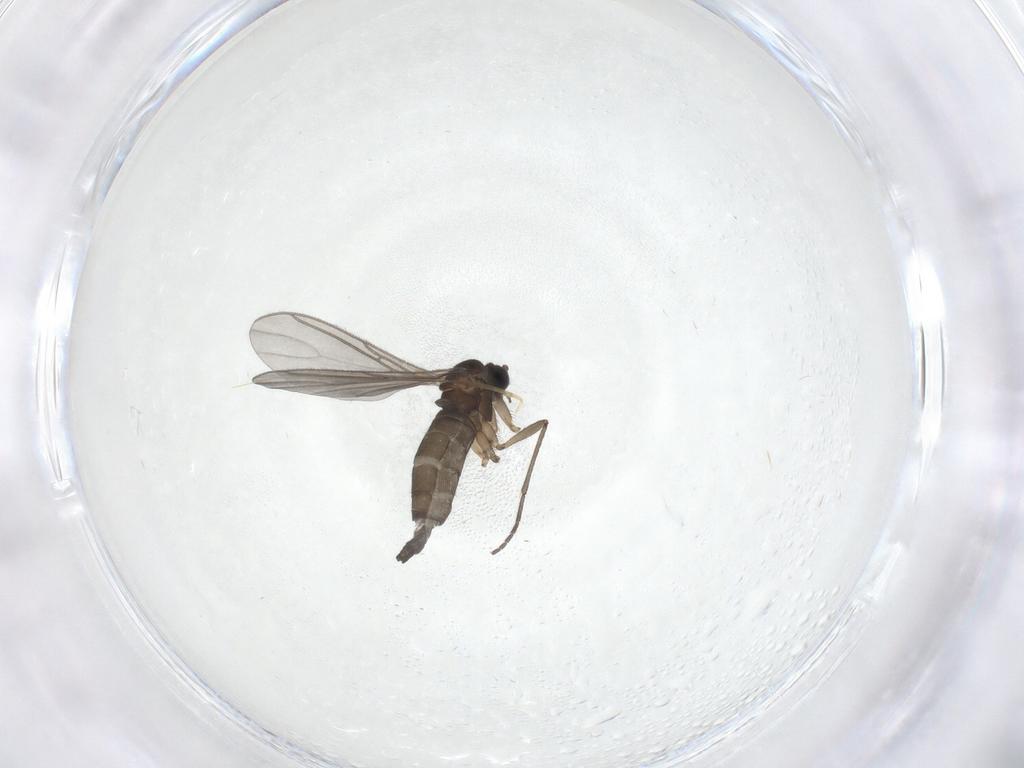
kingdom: Animalia
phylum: Arthropoda
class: Insecta
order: Diptera
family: Sciaridae
